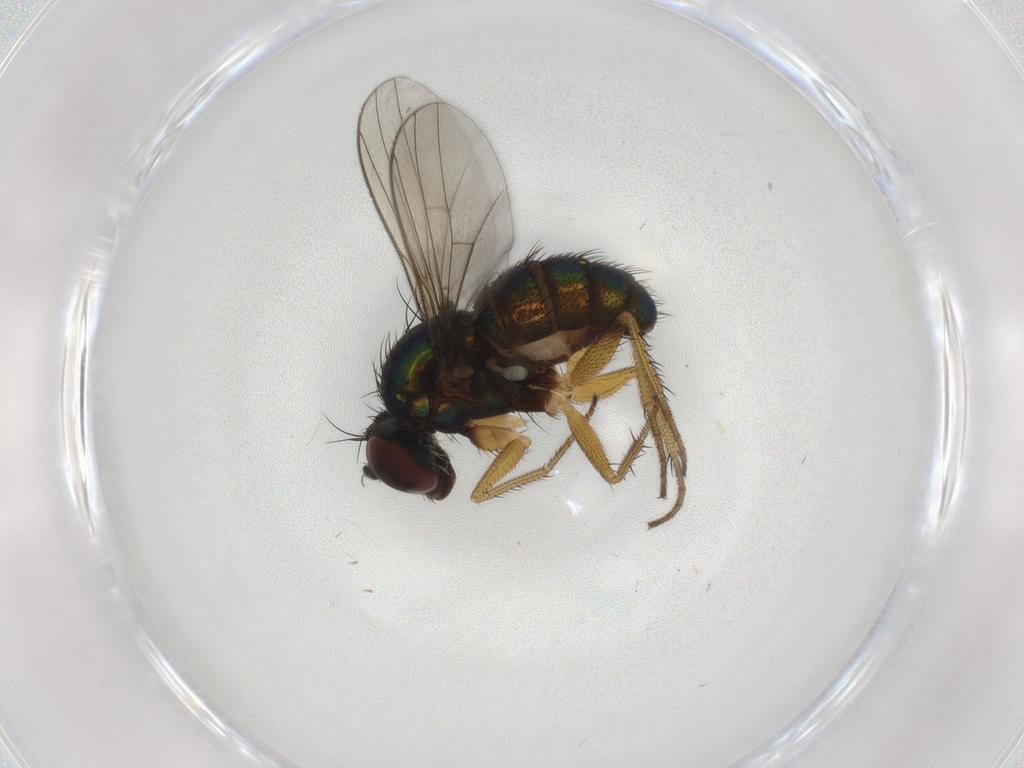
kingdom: Animalia
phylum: Arthropoda
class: Insecta
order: Diptera
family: Dolichopodidae
